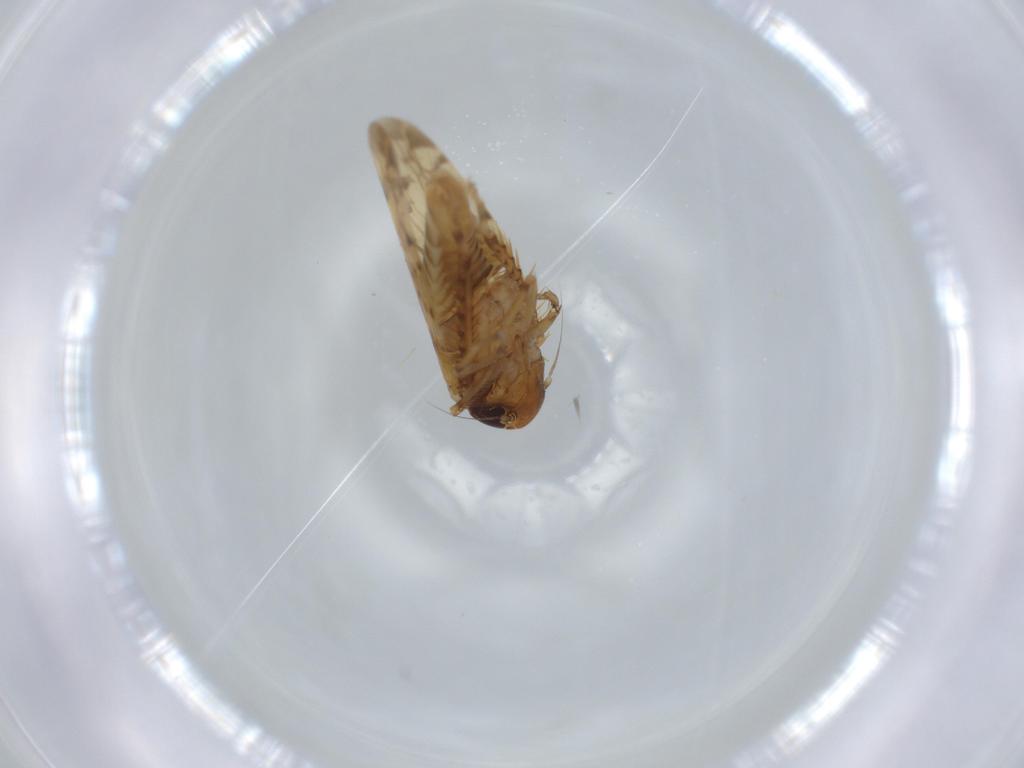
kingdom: Animalia
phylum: Arthropoda
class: Insecta
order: Hemiptera
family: Cicadellidae
